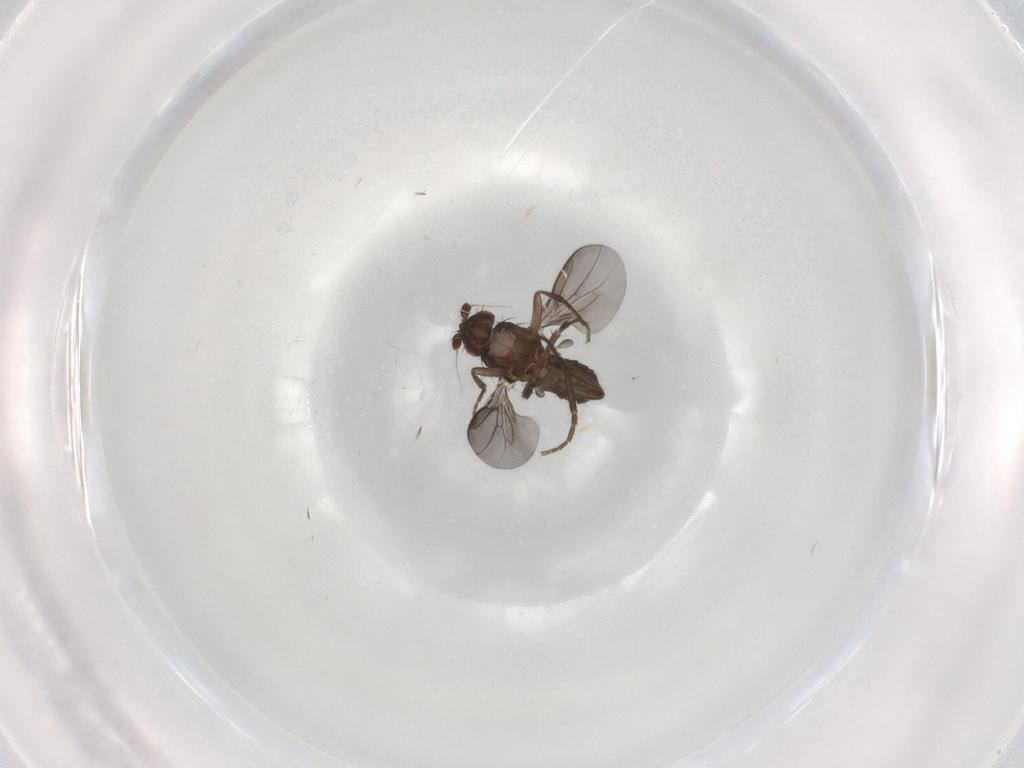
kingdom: Animalia
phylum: Arthropoda
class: Insecta
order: Diptera
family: Sphaeroceridae
